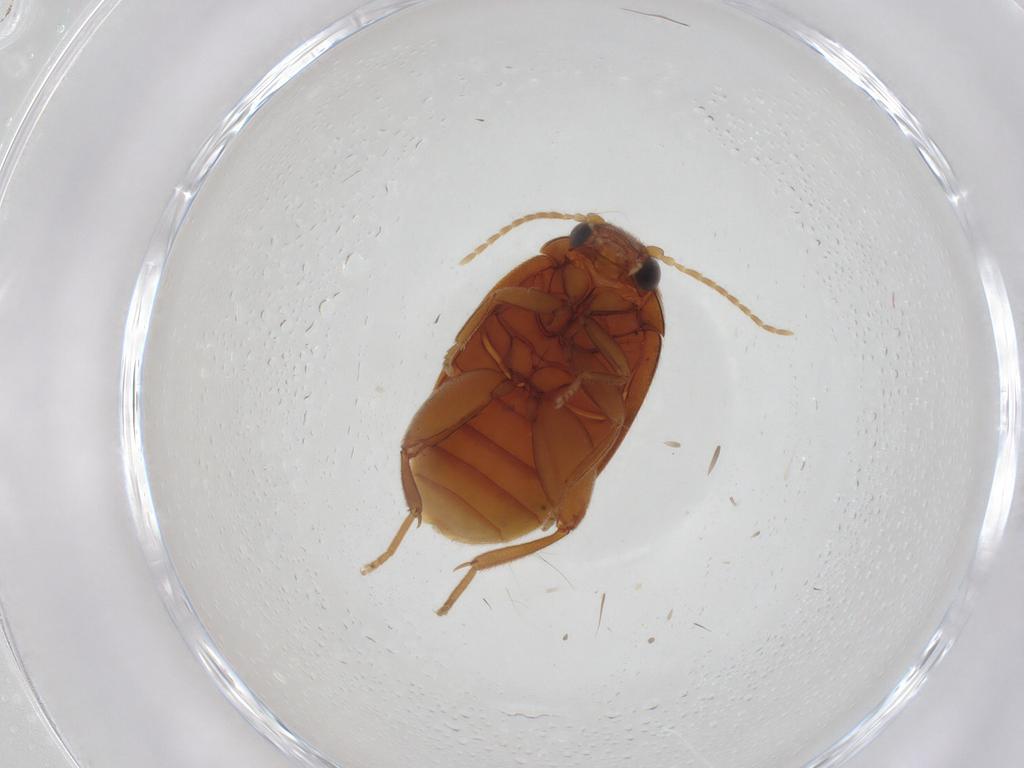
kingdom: Animalia
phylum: Arthropoda
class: Insecta
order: Coleoptera
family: Scirtidae
